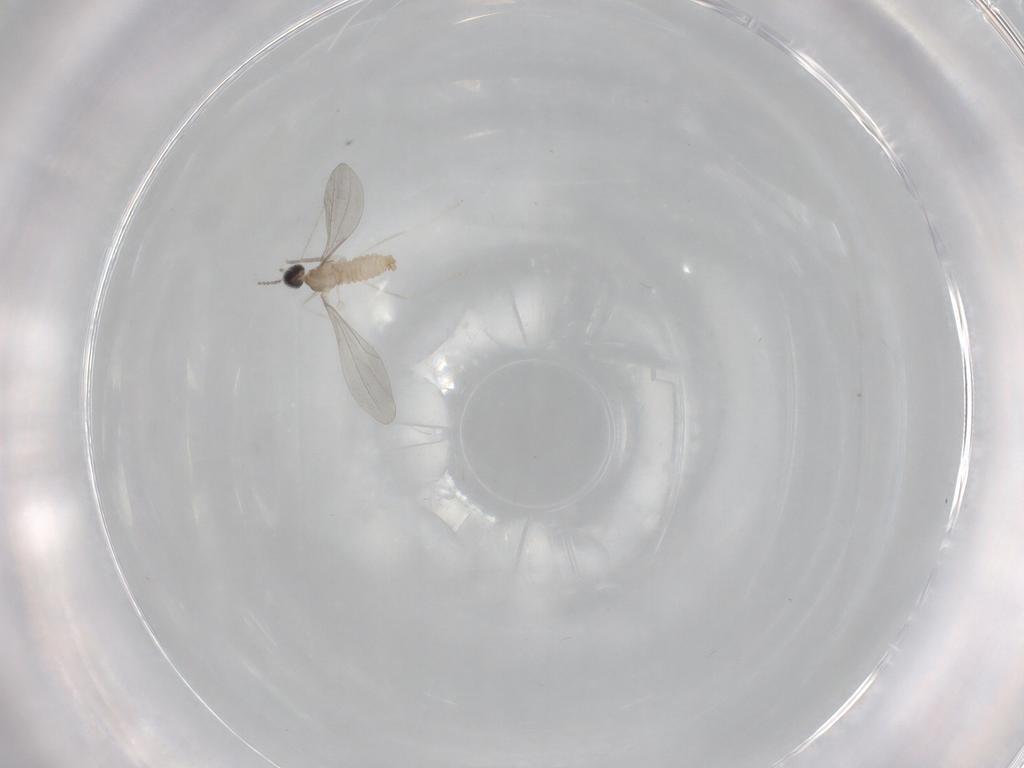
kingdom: Animalia
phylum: Arthropoda
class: Insecta
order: Diptera
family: Cecidomyiidae
